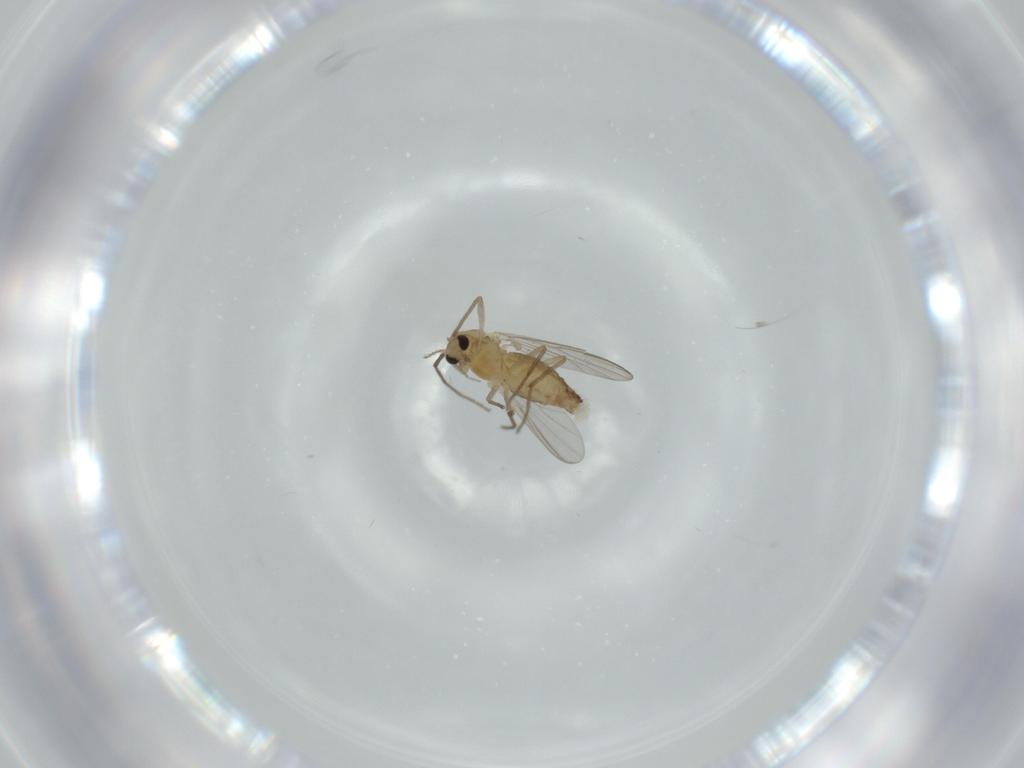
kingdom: Animalia
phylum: Arthropoda
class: Insecta
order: Diptera
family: Chironomidae
